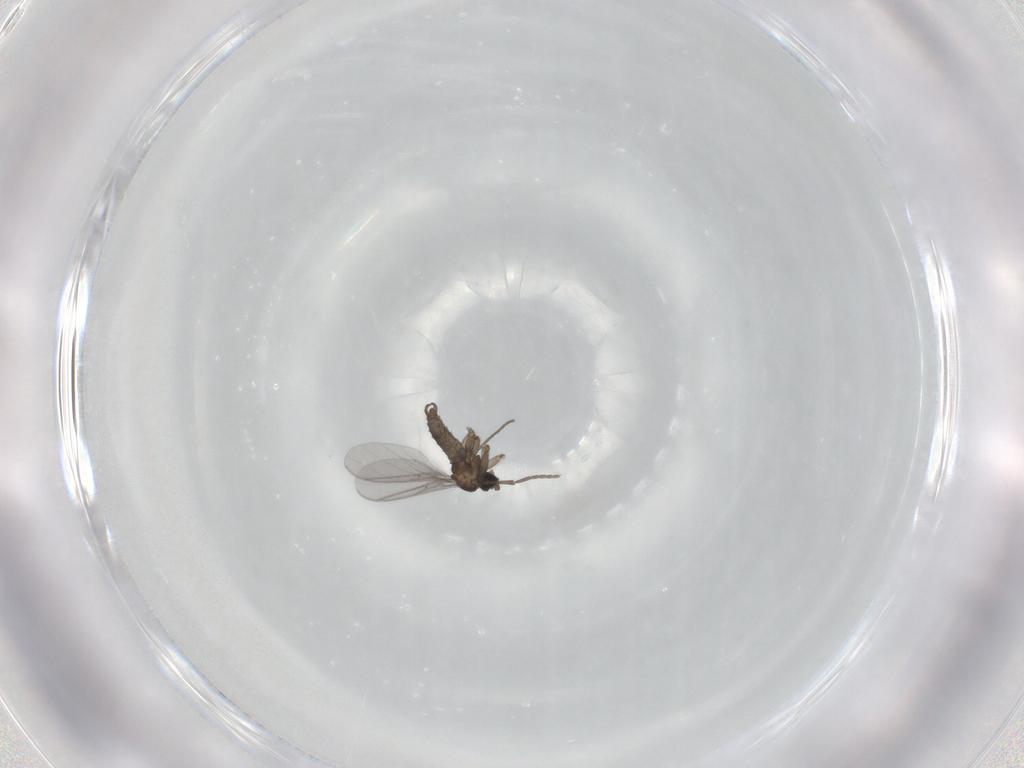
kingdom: Animalia
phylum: Arthropoda
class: Insecta
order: Diptera
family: Sciaridae
